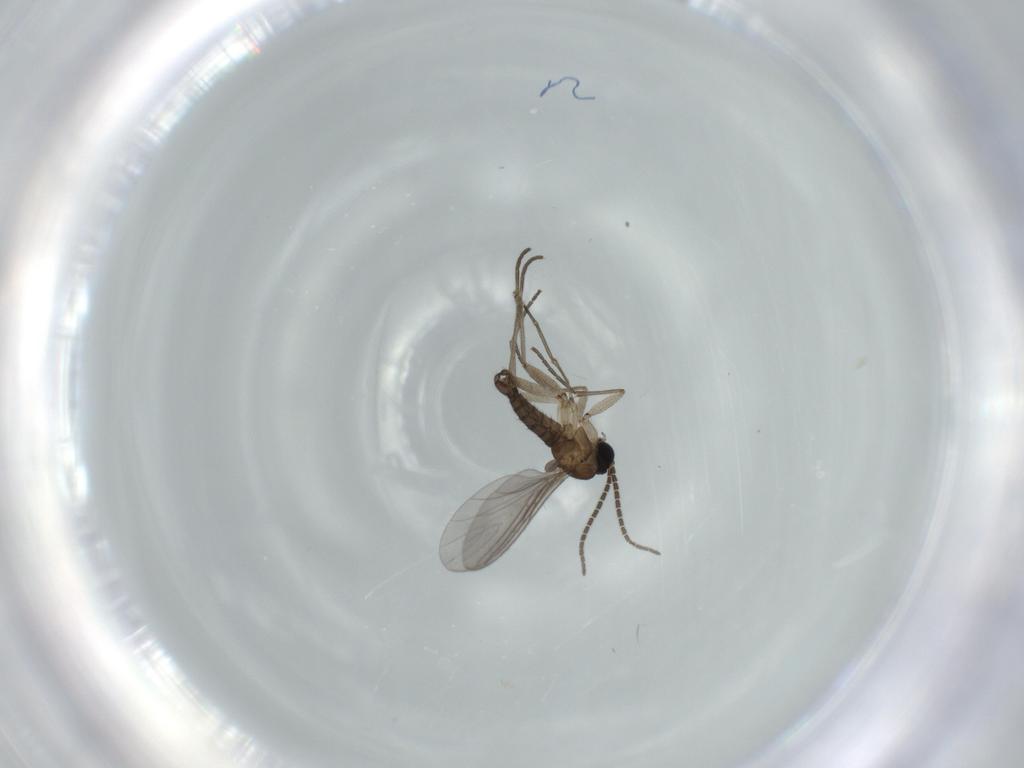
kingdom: Animalia
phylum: Arthropoda
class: Insecta
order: Diptera
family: Sciaridae
